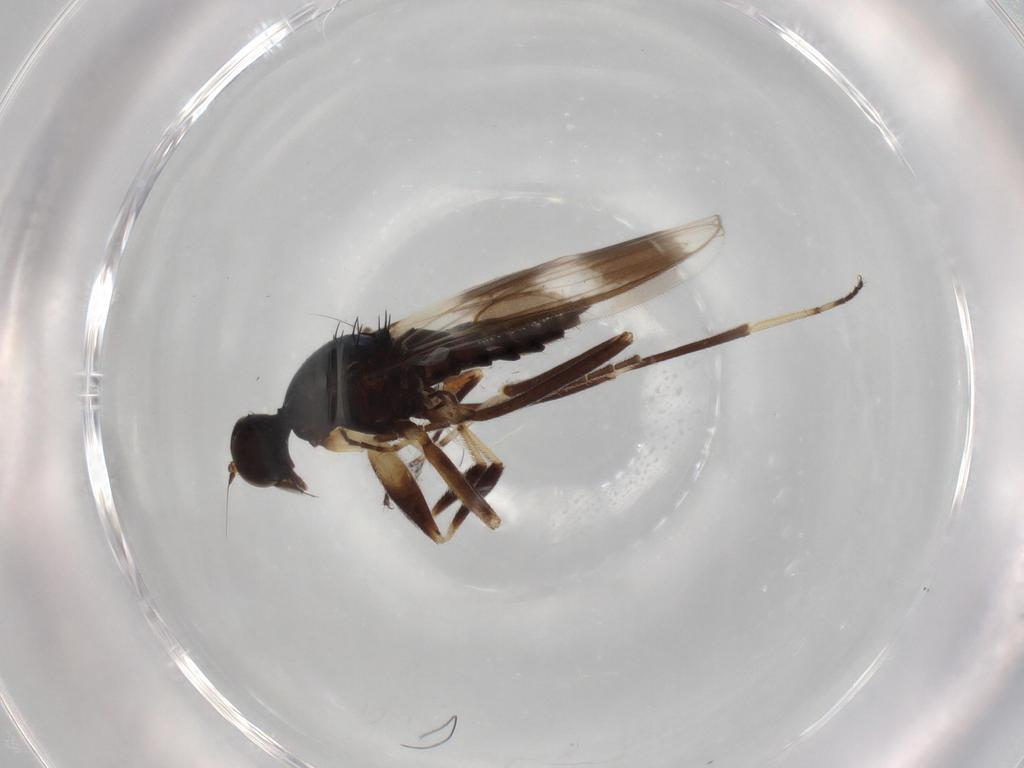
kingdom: Animalia
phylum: Arthropoda
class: Insecta
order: Diptera
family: Hybotidae
